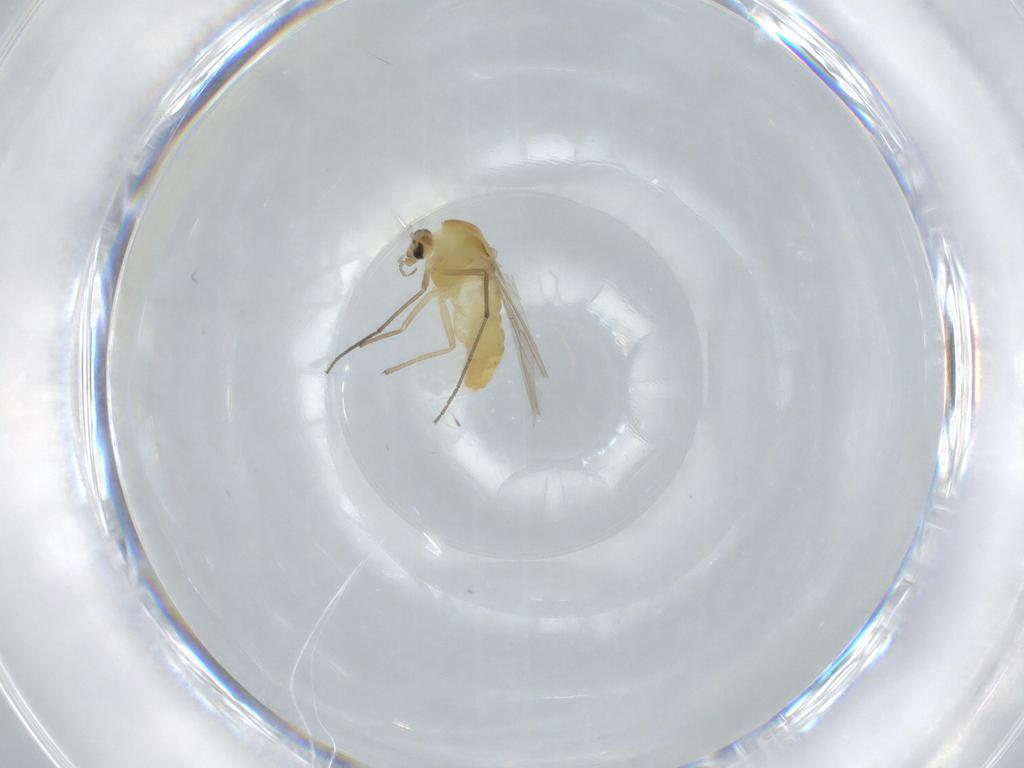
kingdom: Animalia
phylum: Arthropoda
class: Insecta
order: Diptera
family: Chironomidae
